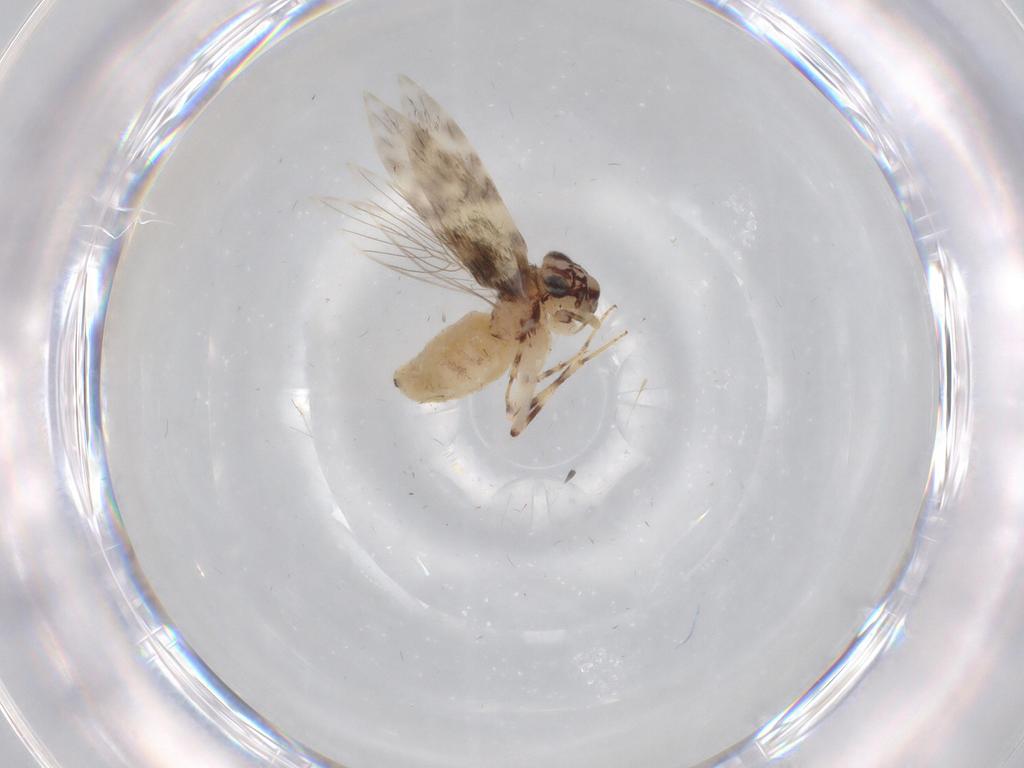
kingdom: Animalia
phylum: Arthropoda
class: Insecta
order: Psocodea
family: Lepidopsocidae
